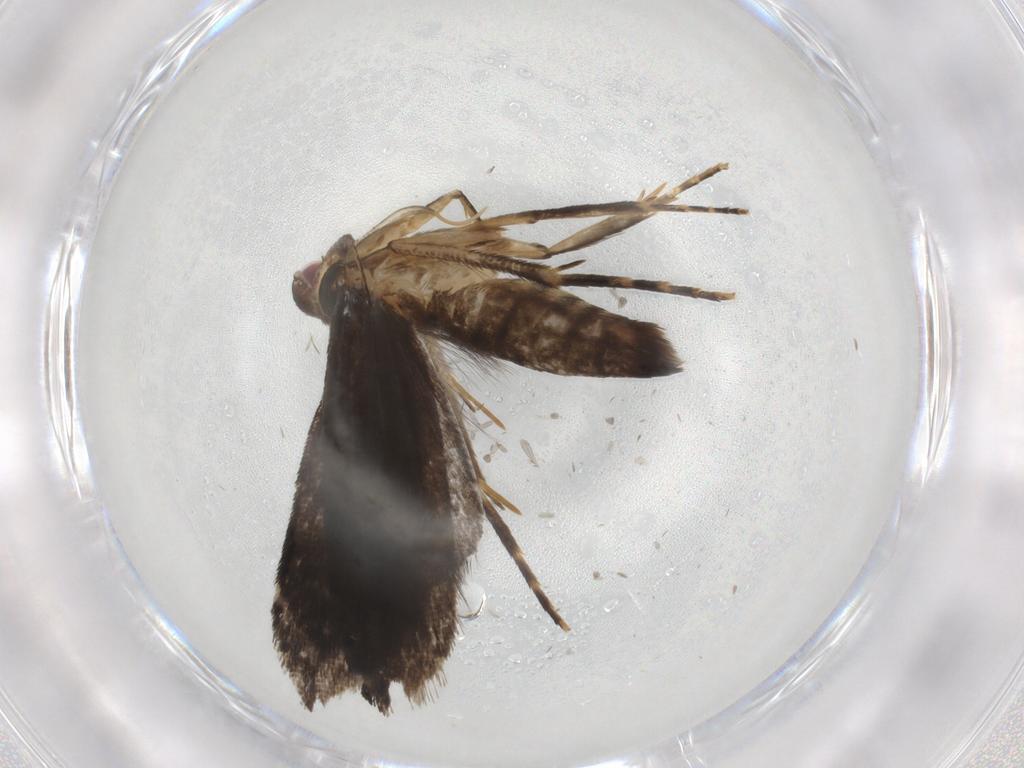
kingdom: Animalia
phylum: Arthropoda
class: Insecta
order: Lepidoptera
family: Gelechiidae
